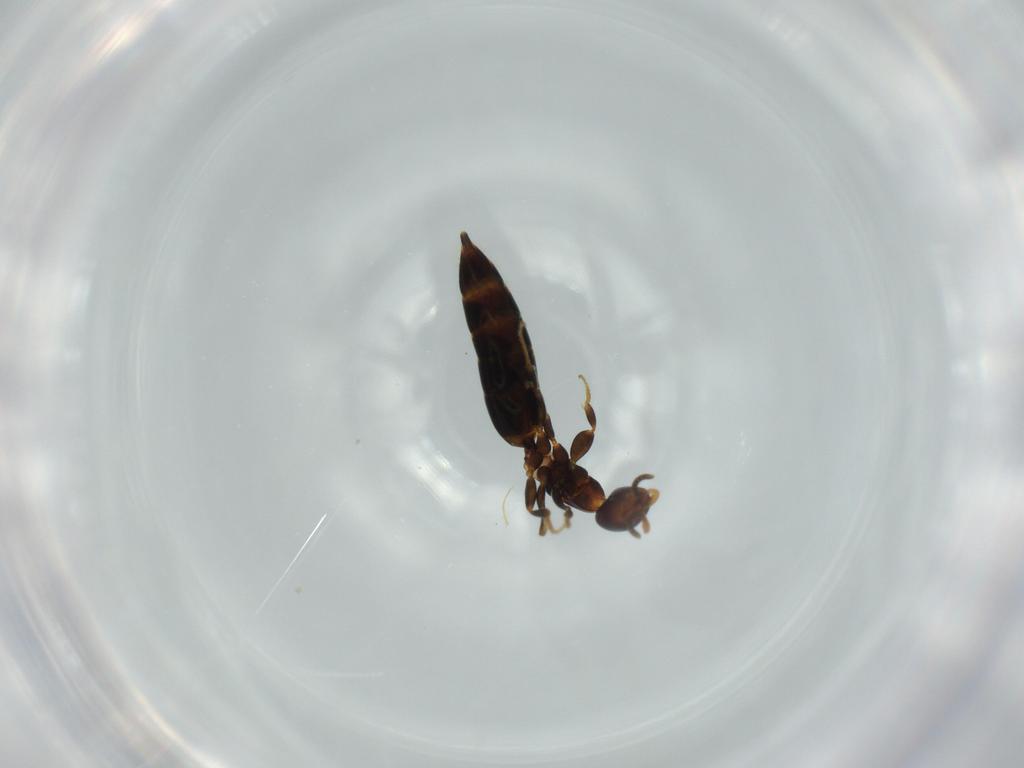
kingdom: Animalia
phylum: Arthropoda
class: Insecta
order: Hymenoptera
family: Bethylidae
